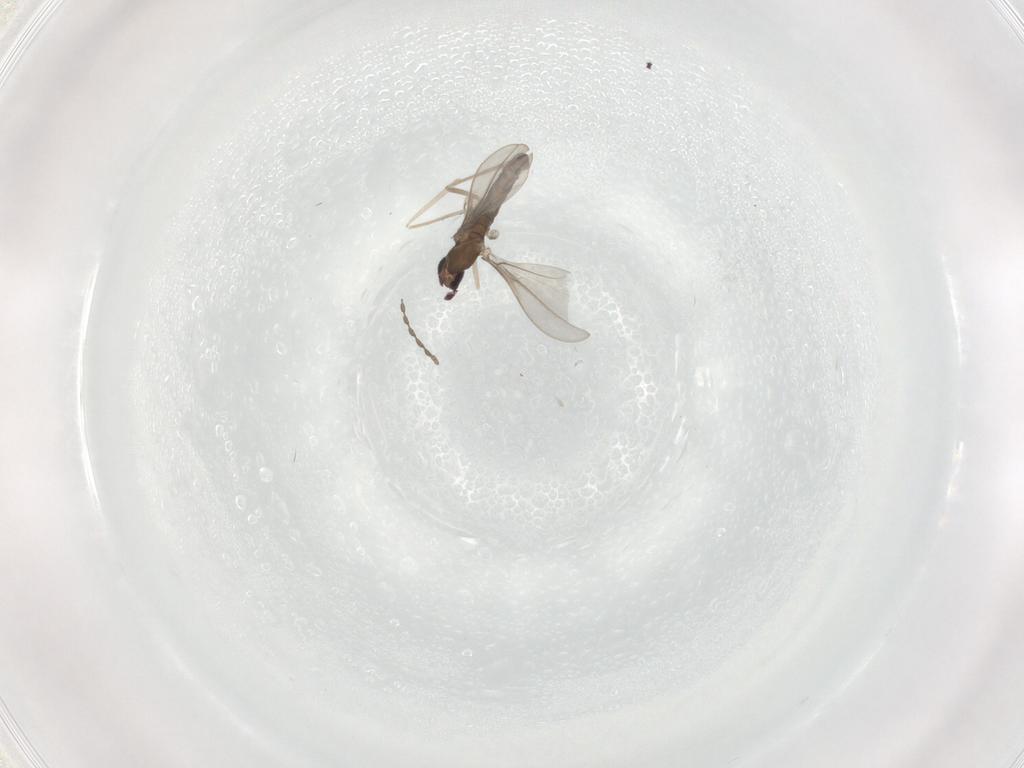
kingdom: Animalia
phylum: Arthropoda
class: Insecta
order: Diptera
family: Cecidomyiidae
